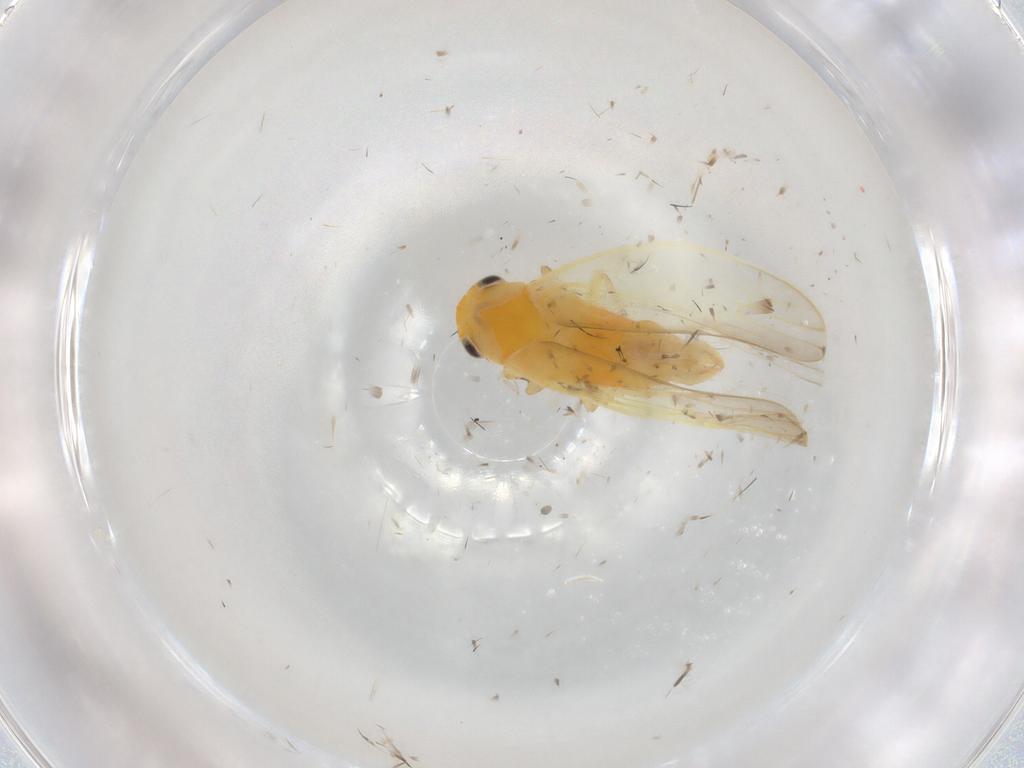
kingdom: Animalia
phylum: Arthropoda
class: Insecta
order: Hemiptera
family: Cicadellidae
